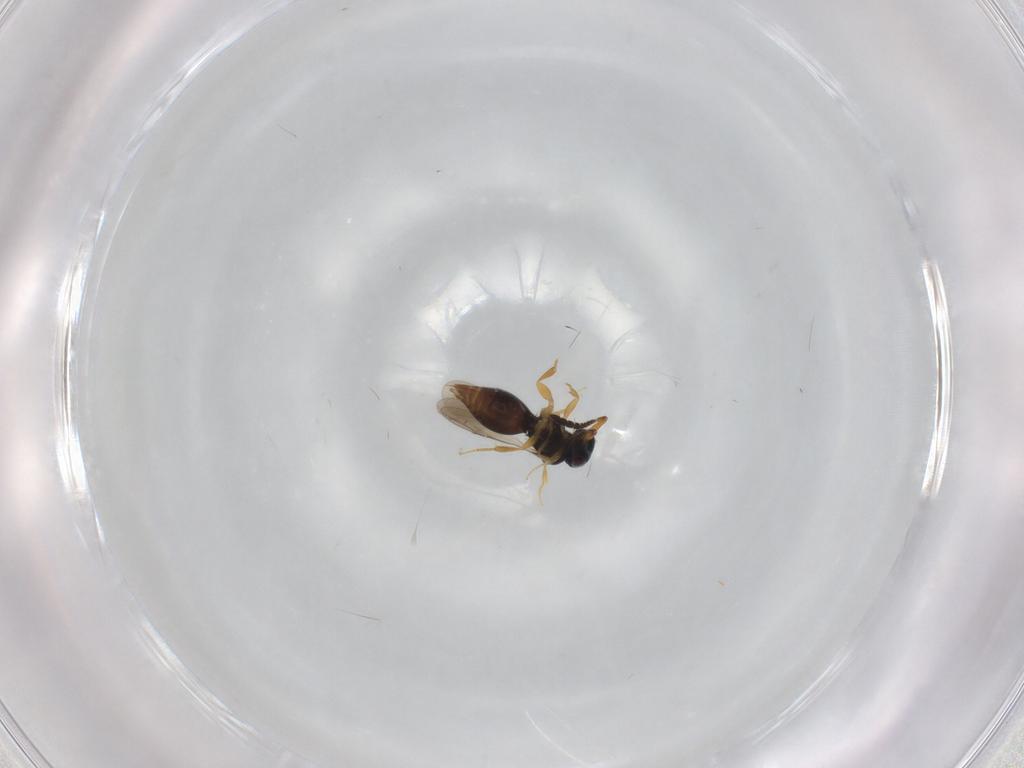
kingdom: Animalia
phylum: Arthropoda
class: Insecta
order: Hymenoptera
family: Ceraphronidae
